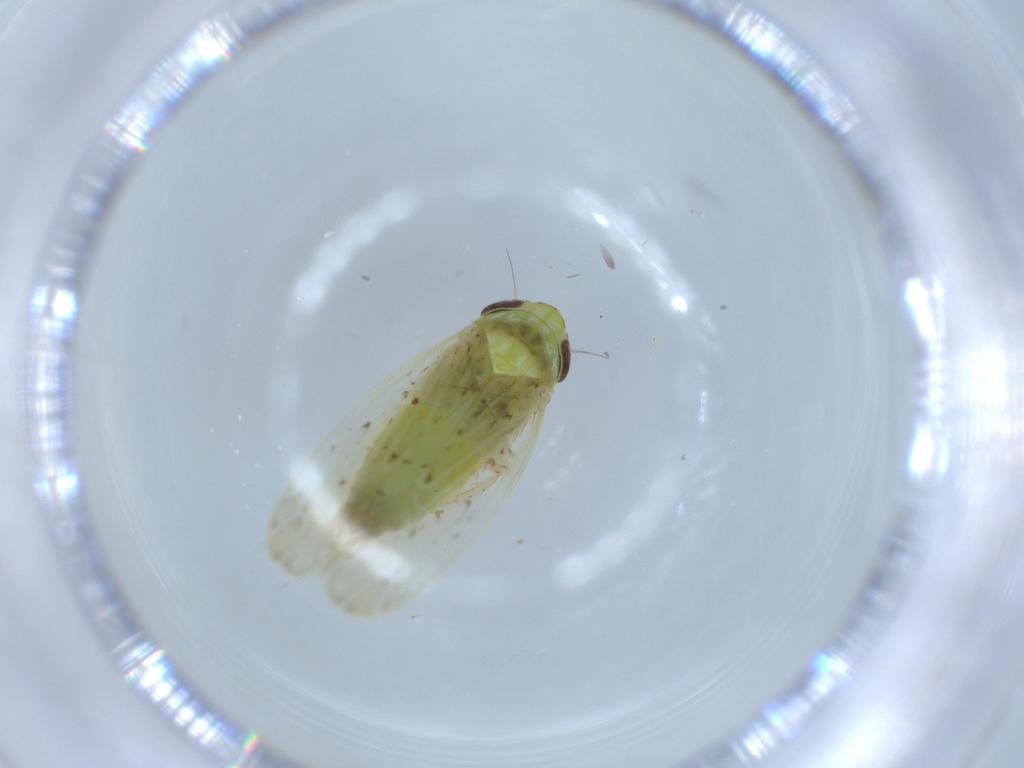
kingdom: Animalia
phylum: Arthropoda
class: Insecta
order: Hemiptera
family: Cicadellidae
